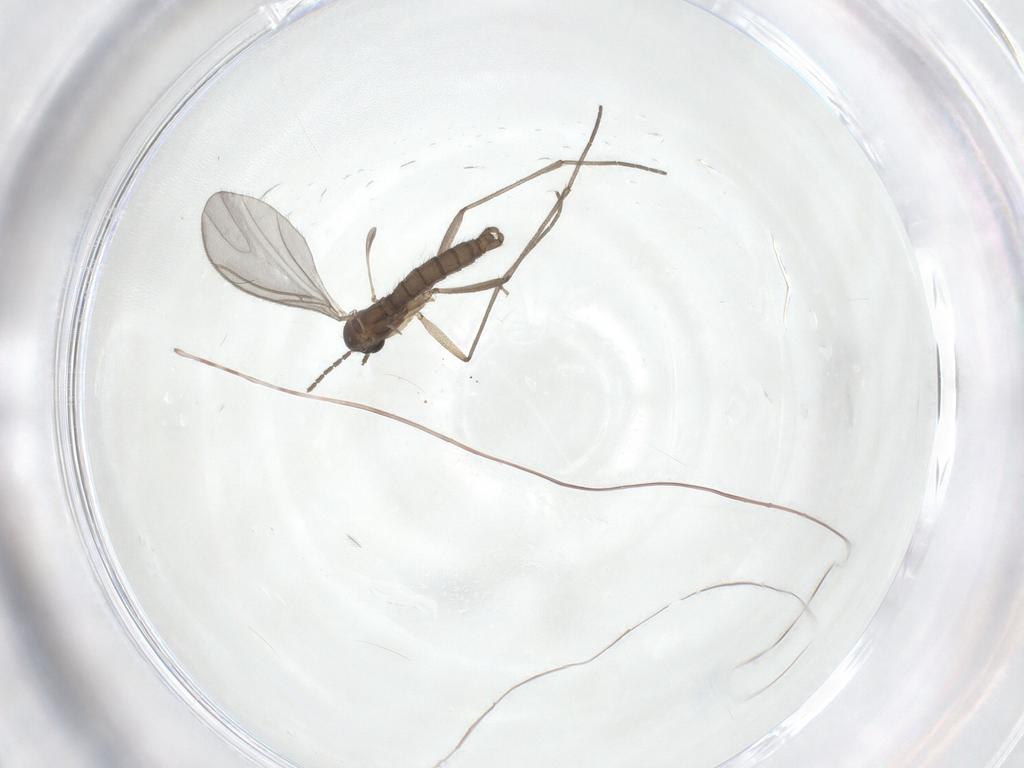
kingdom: Animalia
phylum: Arthropoda
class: Insecta
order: Diptera
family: Sciaridae
